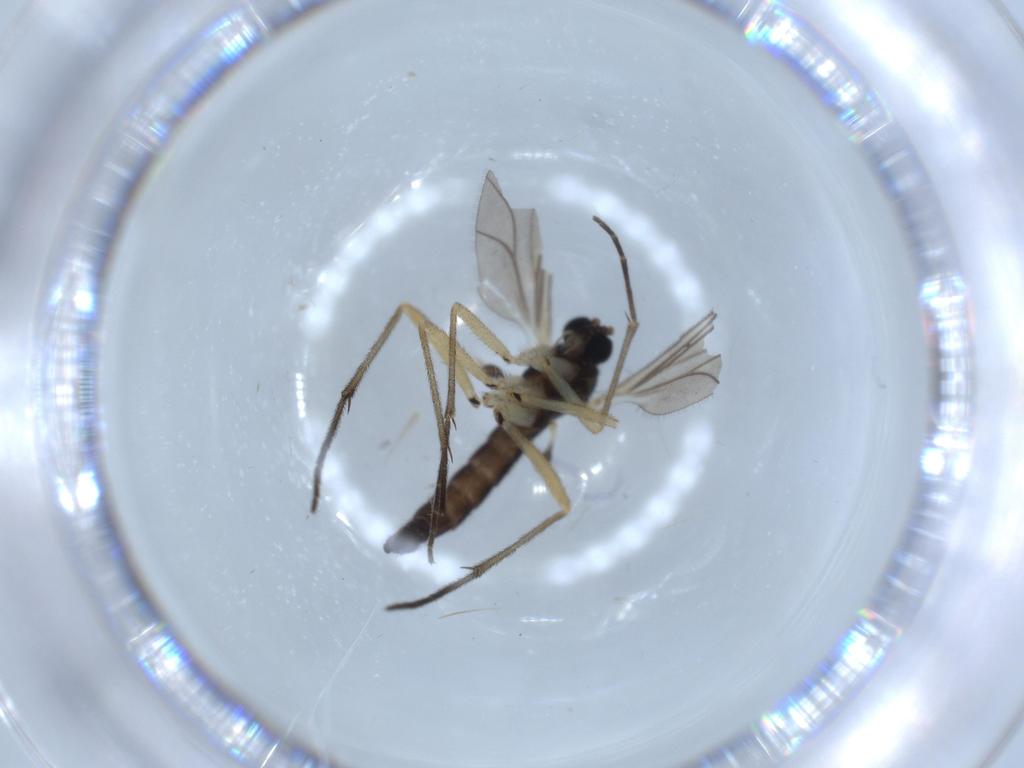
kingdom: Animalia
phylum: Arthropoda
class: Insecta
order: Diptera
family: Sciaridae
